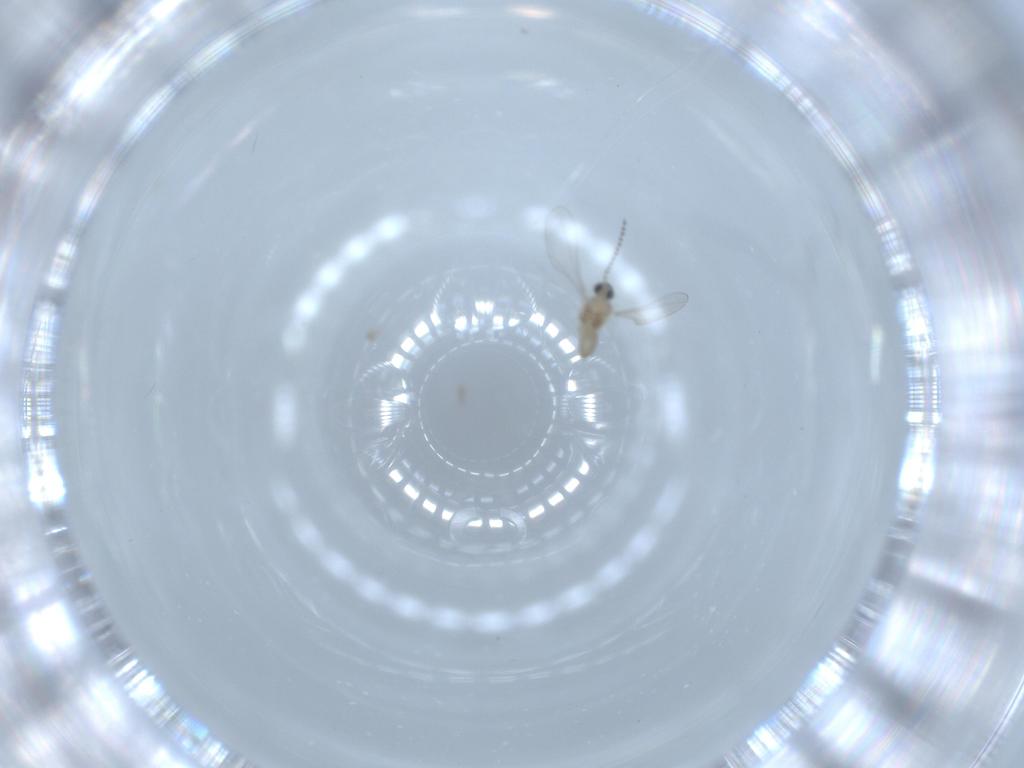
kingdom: Animalia
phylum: Arthropoda
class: Insecta
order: Diptera
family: Cecidomyiidae
